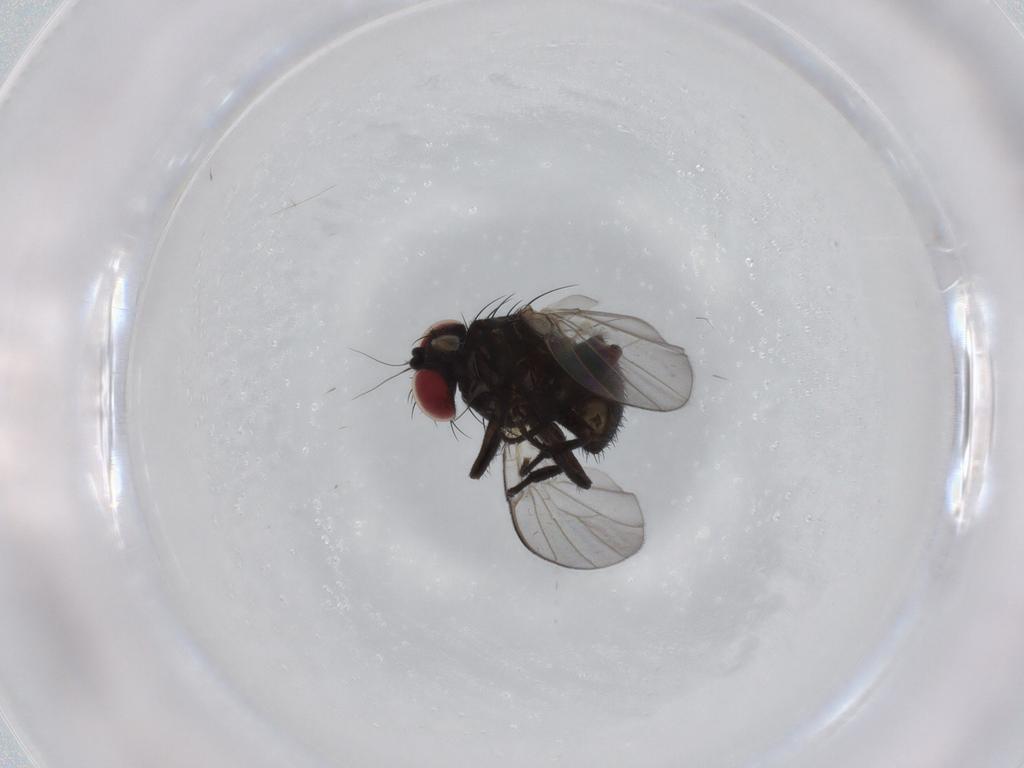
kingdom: Animalia
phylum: Arthropoda
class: Insecta
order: Diptera
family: Agromyzidae
